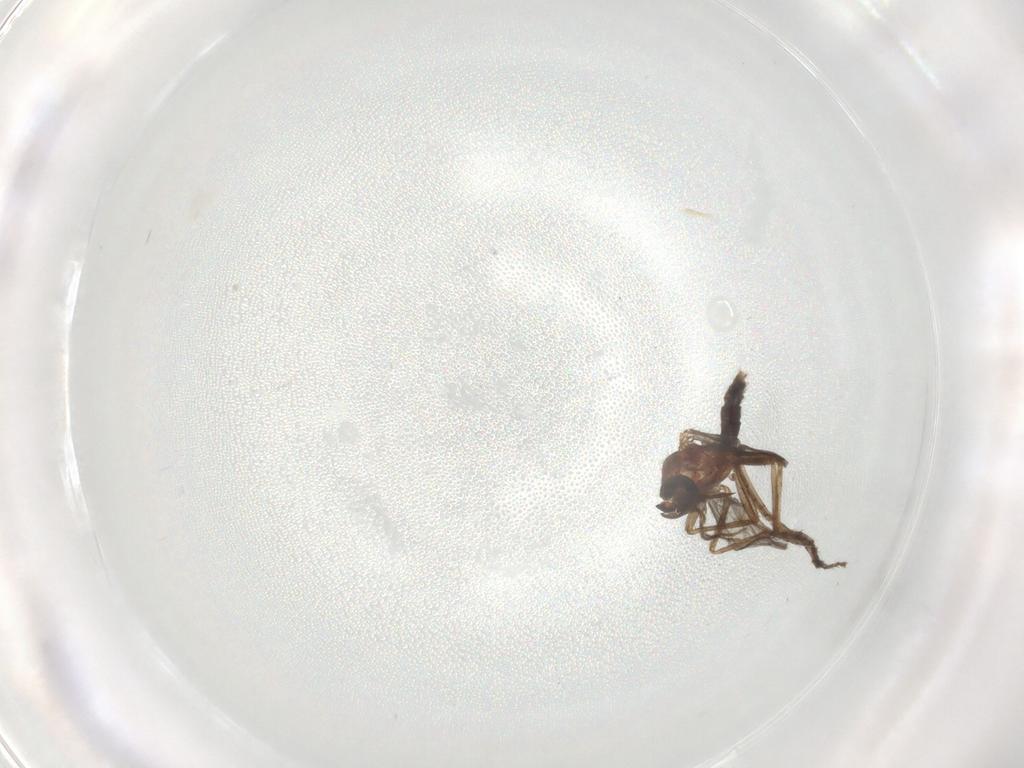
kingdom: Animalia
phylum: Arthropoda
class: Insecta
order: Diptera
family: Ceratopogonidae
